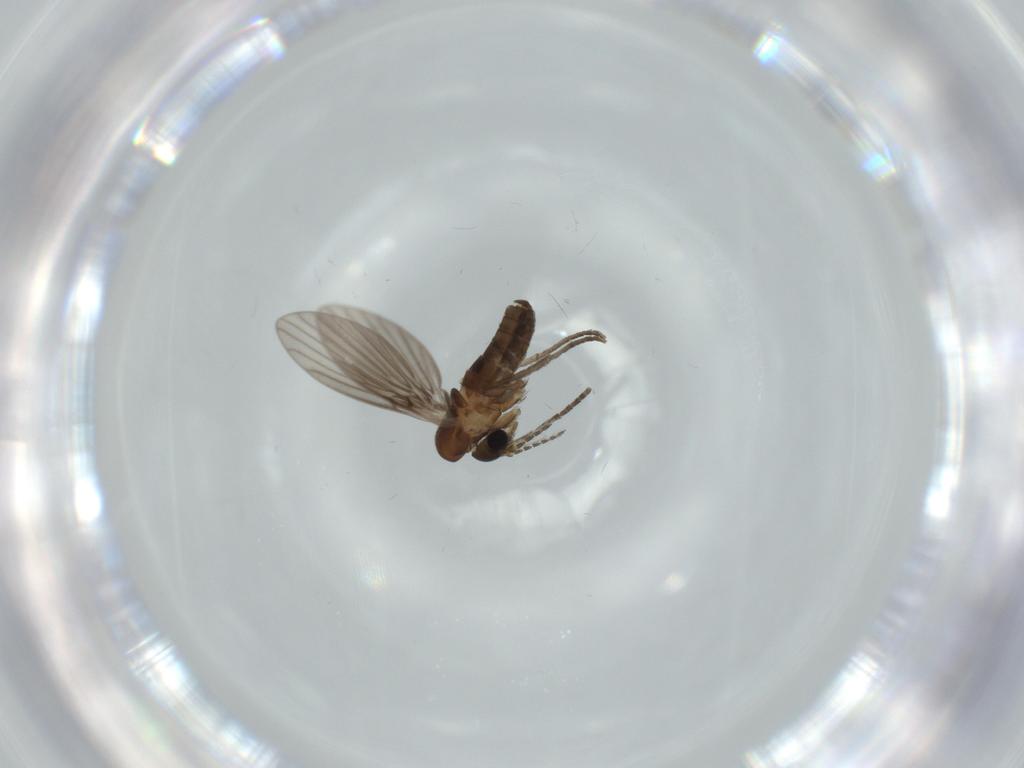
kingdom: Animalia
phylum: Arthropoda
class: Insecta
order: Diptera
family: Psychodidae
